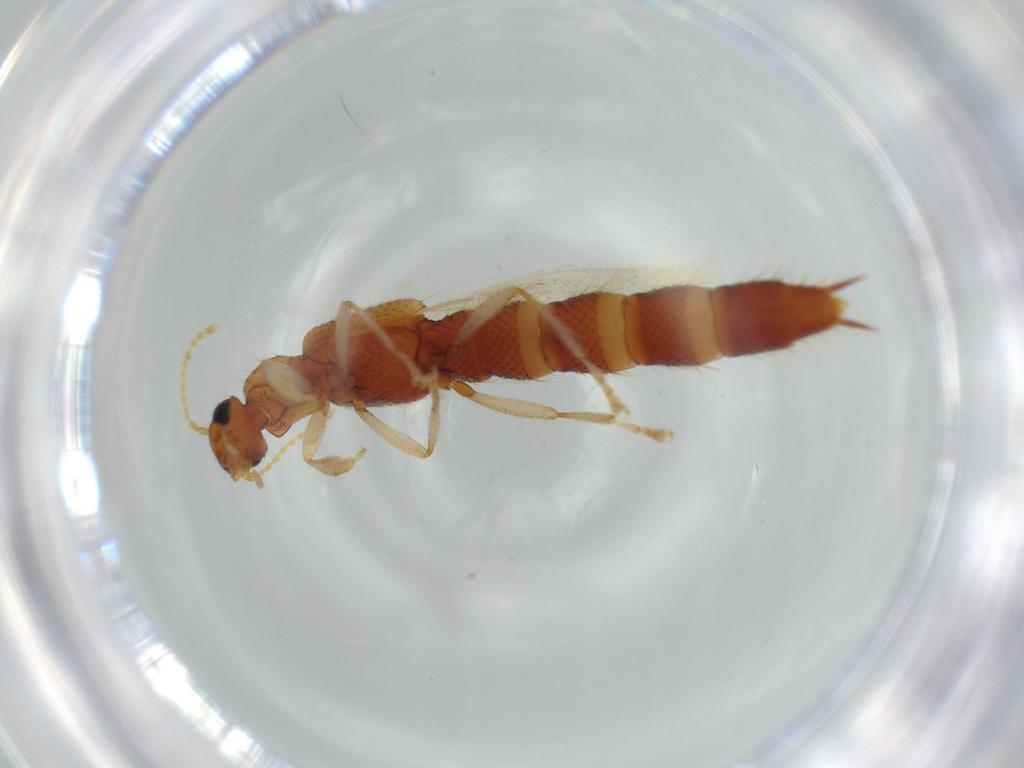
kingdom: Animalia
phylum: Arthropoda
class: Insecta
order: Coleoptera
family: Staphylinidae
